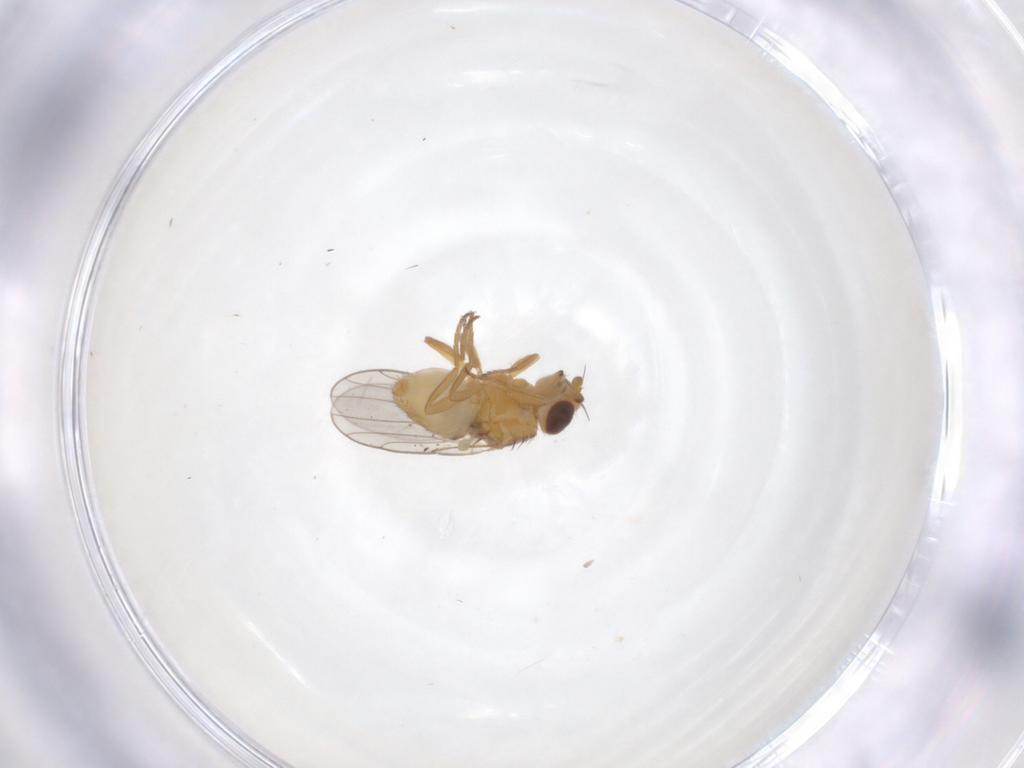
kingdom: Animalia
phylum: Arthropoda
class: Insecta
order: Diptera
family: Chloropidae
